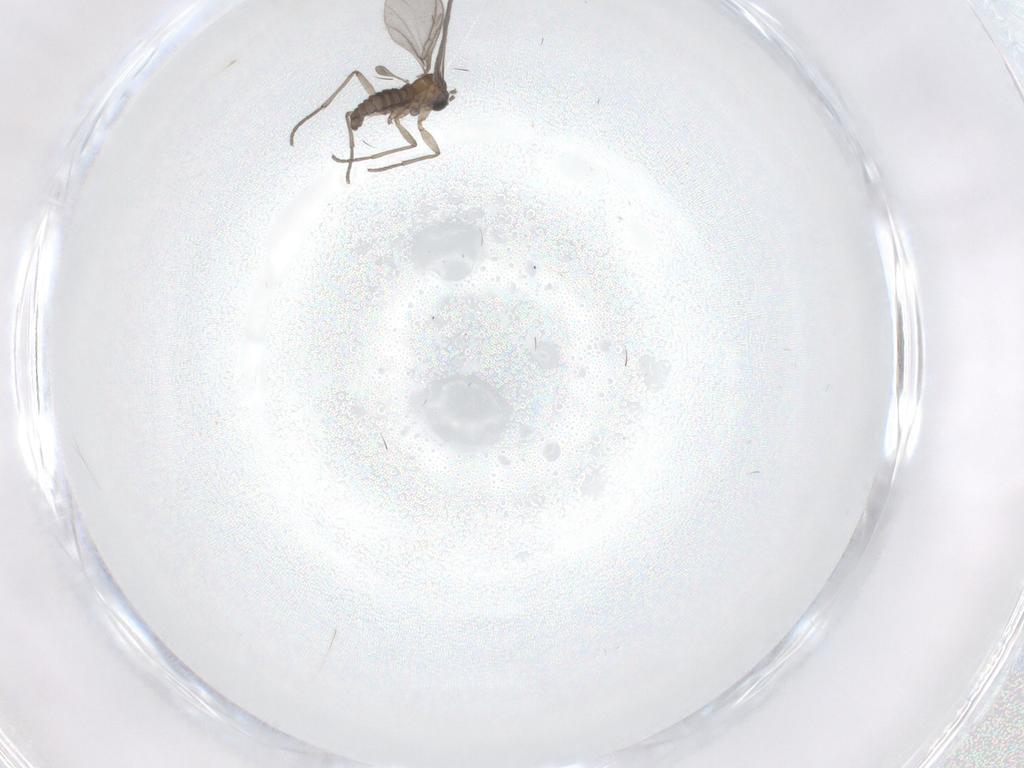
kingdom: Animalia
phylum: Arthropoda
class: Insecta
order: Diptera
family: Sciaridae
